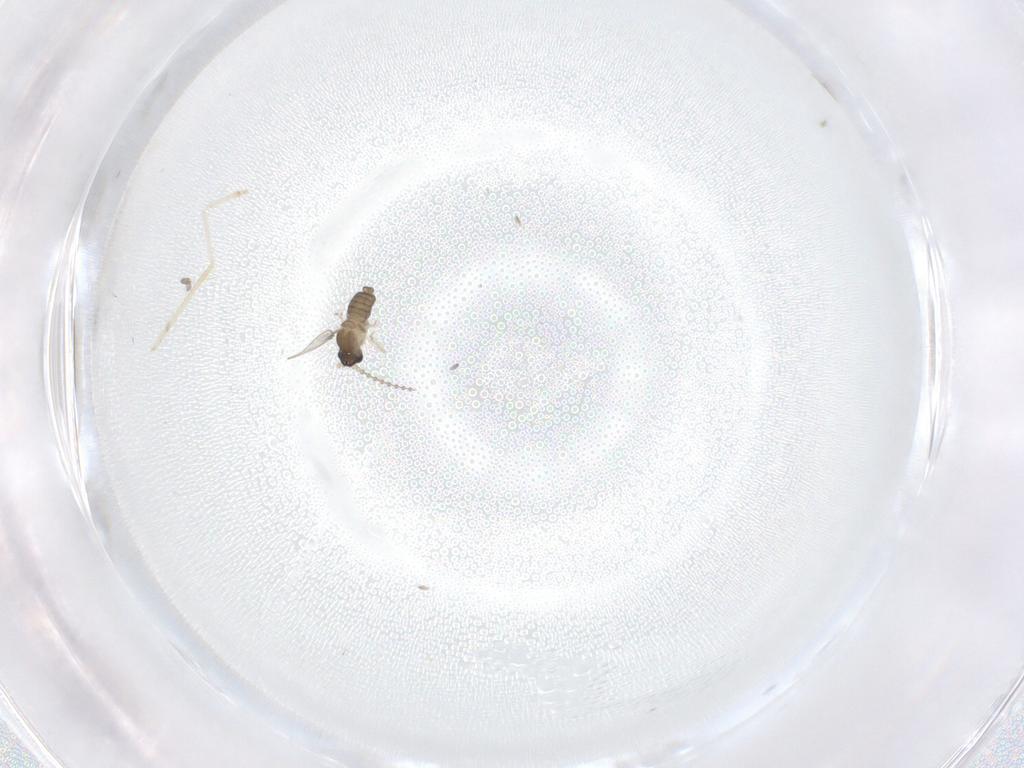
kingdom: Animalia
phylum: Arthropoda
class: Insecta
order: Diptera
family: Cecidomyiidae
